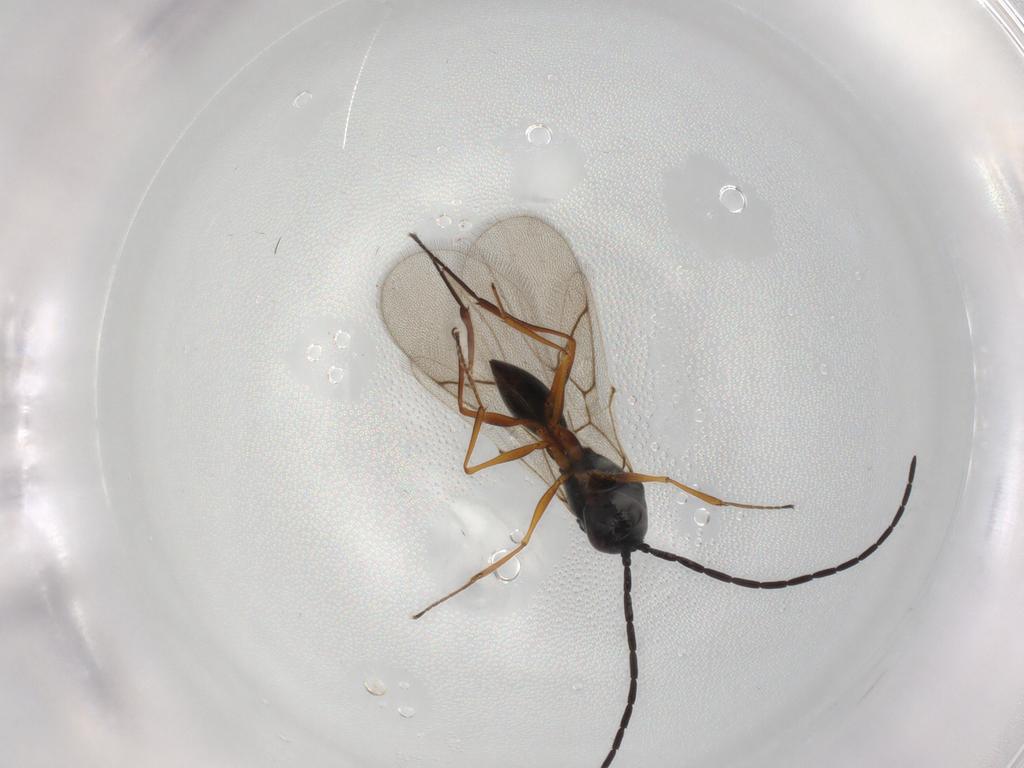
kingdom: Animalia
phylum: Arthropoda
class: Insecta
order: Hymenoptera
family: Figitidae
